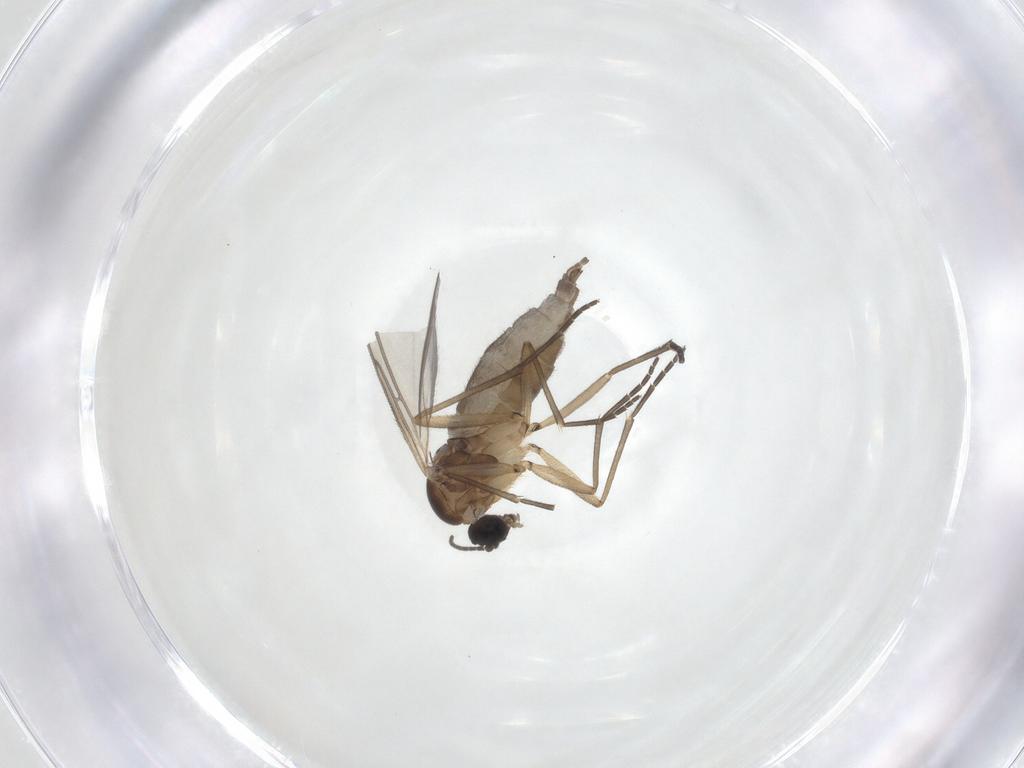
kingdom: Animalia
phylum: Arthropoda
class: Insecta
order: Diptera
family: Sciaridae
